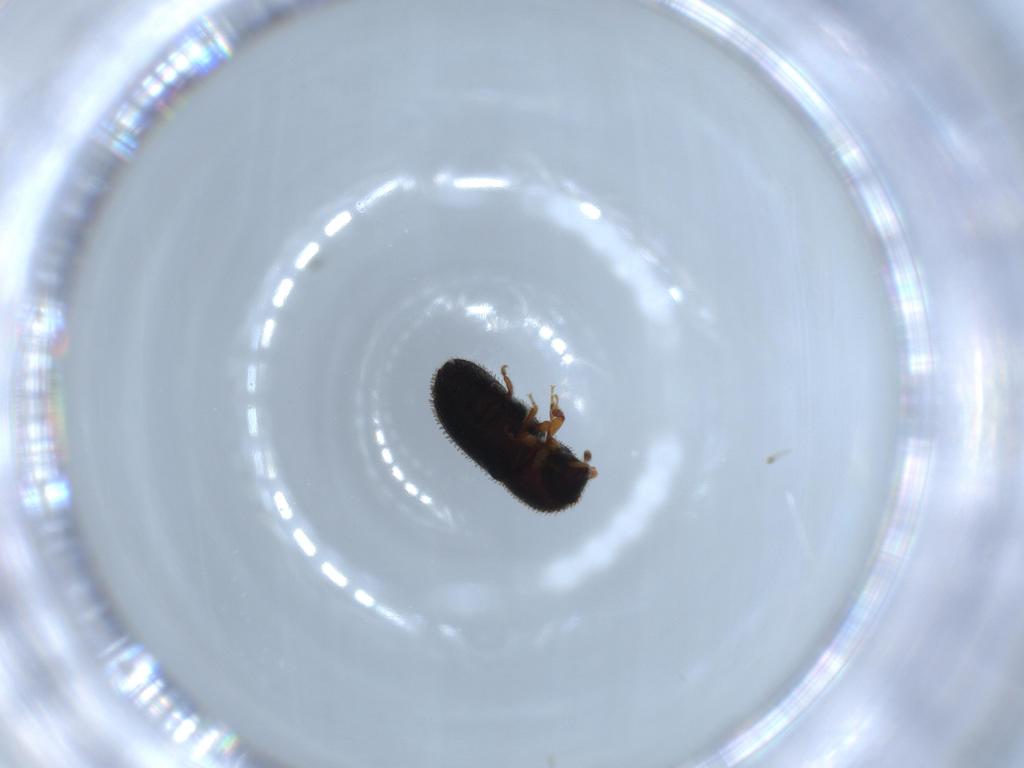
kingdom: Animalia
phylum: Arthropoda
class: Insecta
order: Coleoptera
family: Curculionidae
